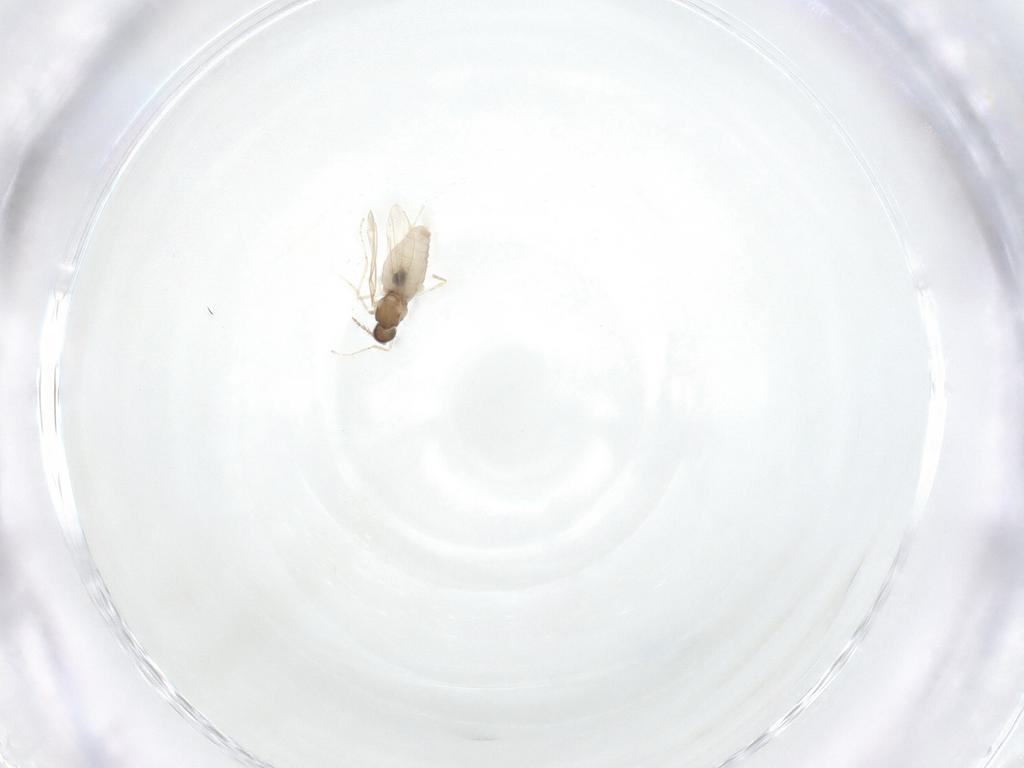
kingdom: Animalia
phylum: Arthropoda
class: Insecta
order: Diptera
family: Cecidomyiidae
